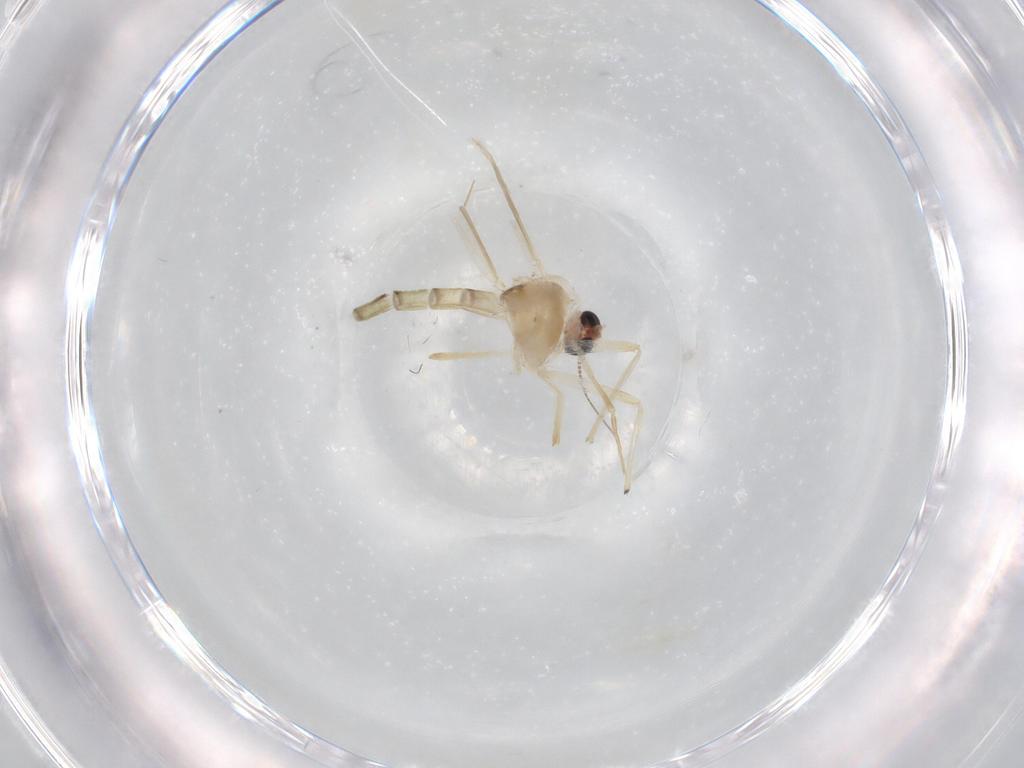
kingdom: Animalia
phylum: Arthropoda
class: Insecta
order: Diptera
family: Chironomidae
